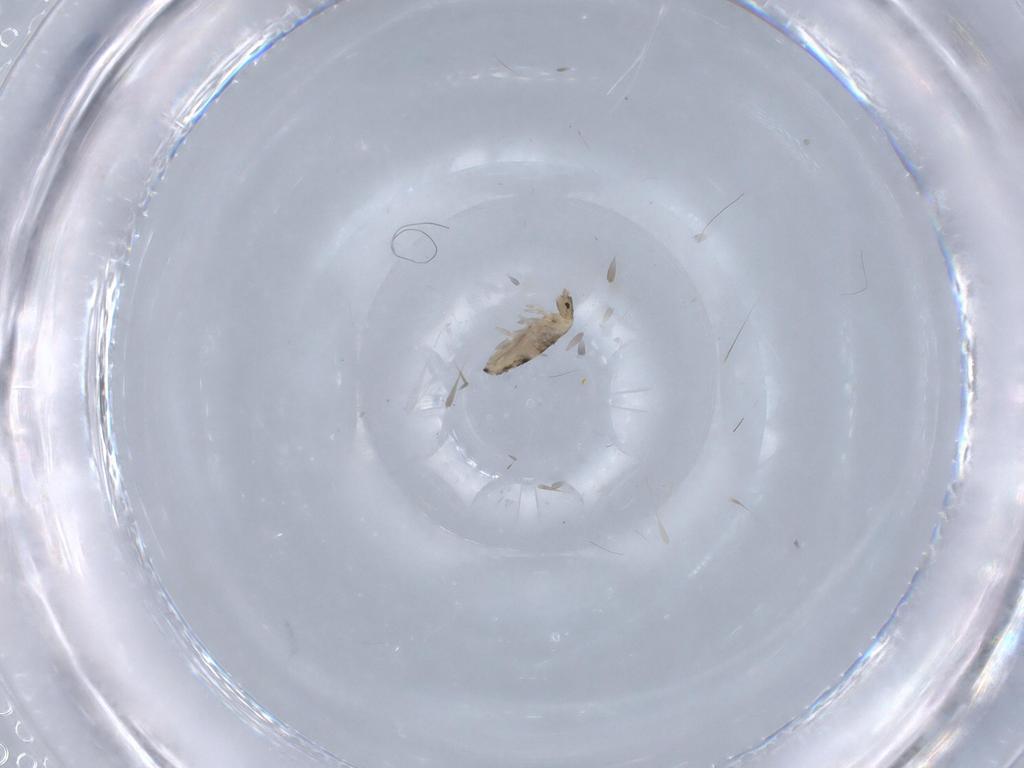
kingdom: Animalia
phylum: Arthropoda
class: Collembola
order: Entomobryomorpha
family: Entomobryidae
